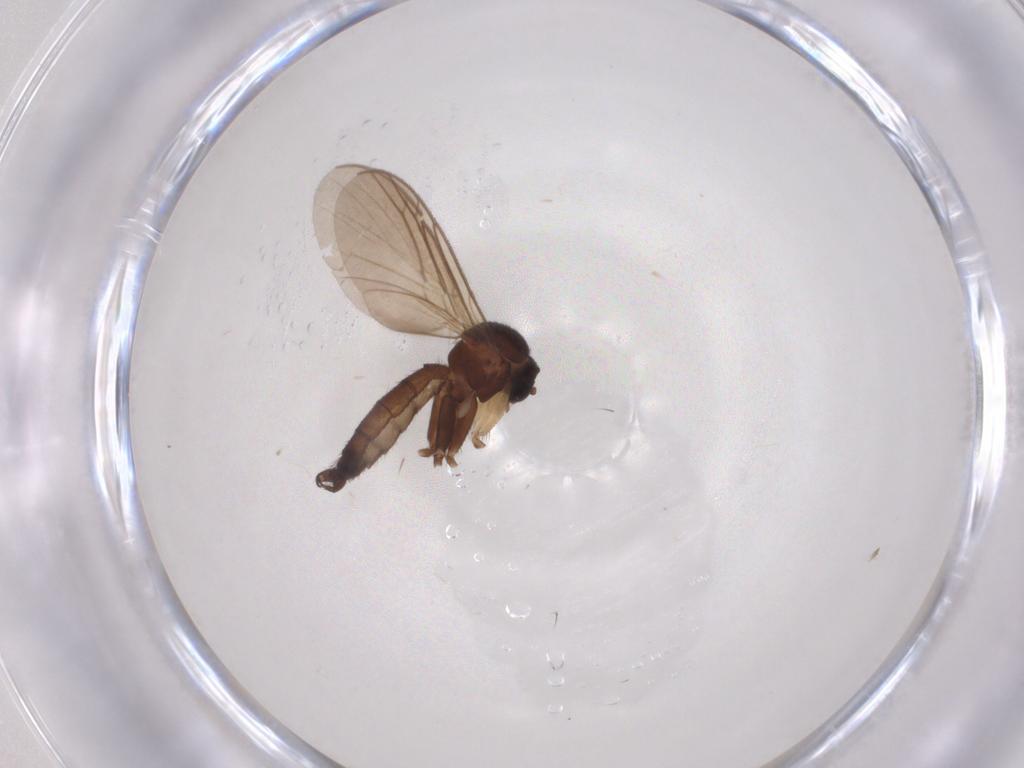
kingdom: Animalia
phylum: Arthropoda
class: Insecta
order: Diptera
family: Keroplatidae
